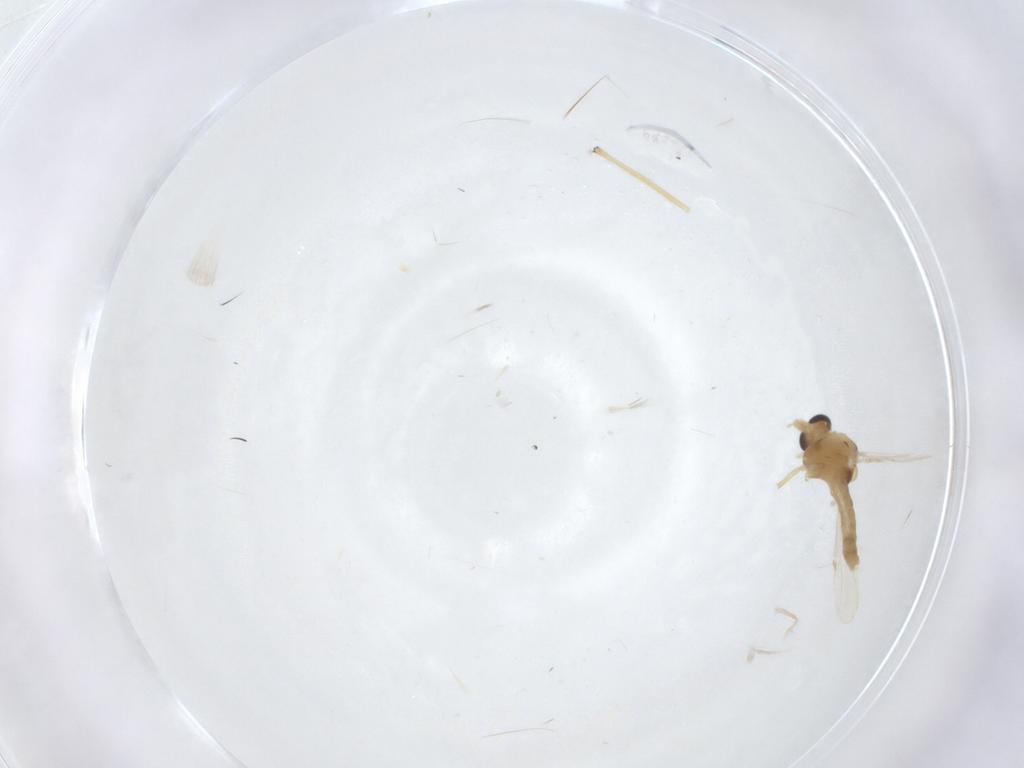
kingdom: Animalia
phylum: Arthropoda
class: Insecta
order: Diptera
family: Chironomidae
